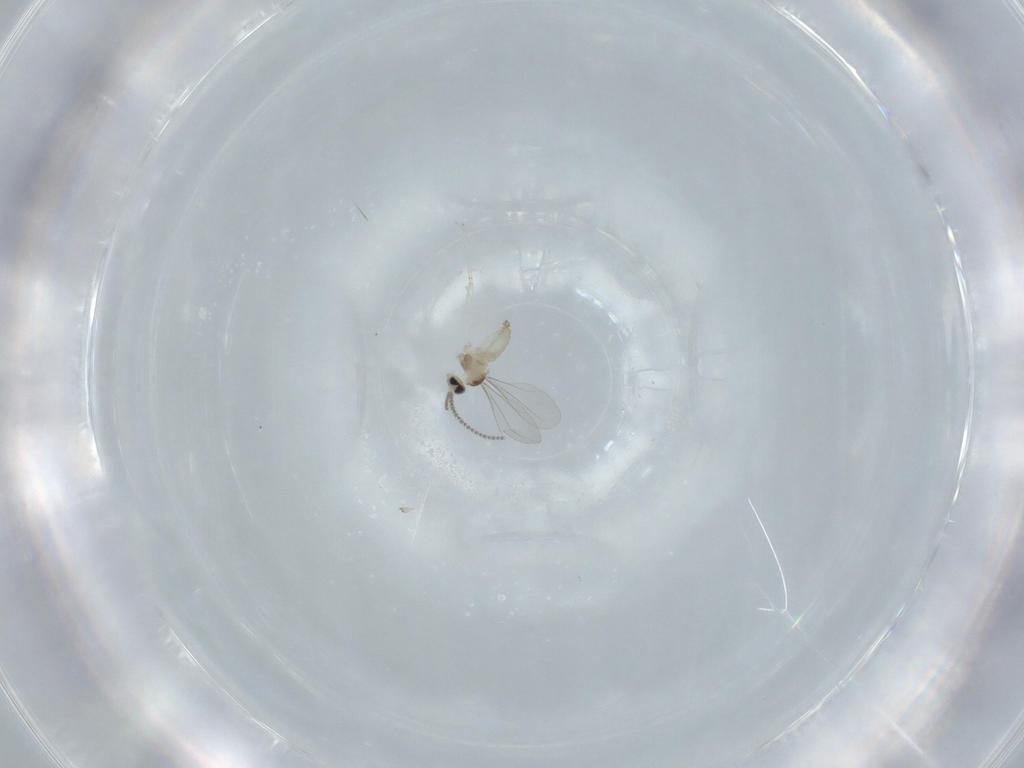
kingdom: Animalia
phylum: Arthropoda
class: Insecta
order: Diptera
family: Cecidomyiidae
